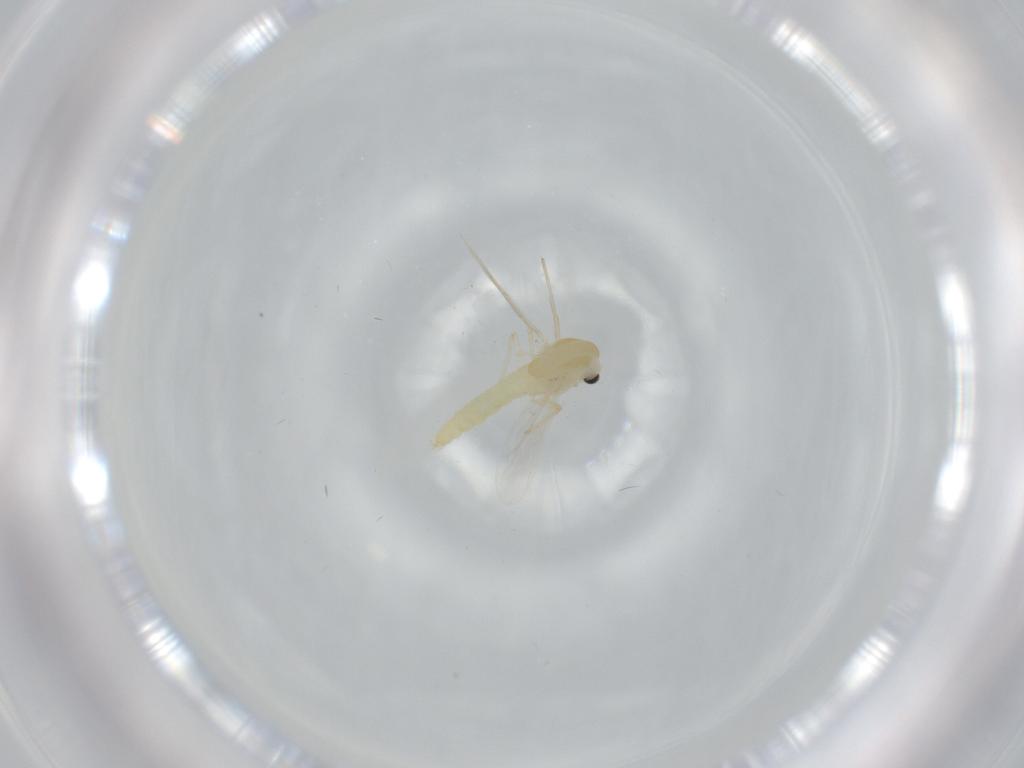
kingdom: Animalia
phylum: Arthropoda
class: Insecta
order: Diptera
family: Chironomidae
